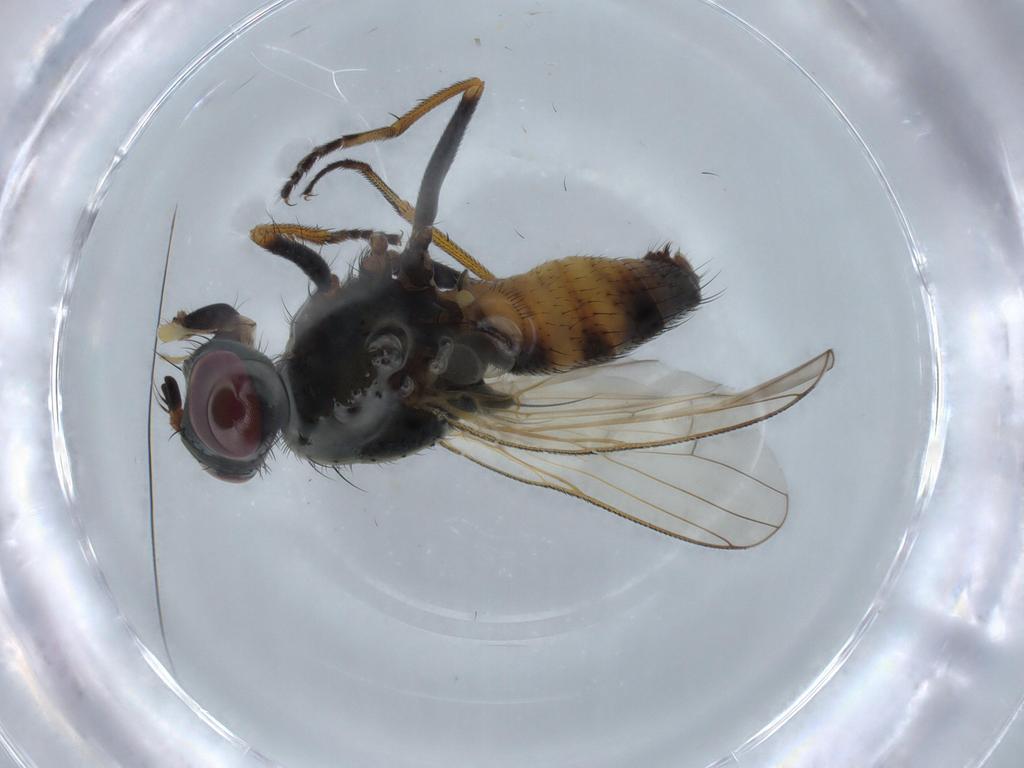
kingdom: Animalia
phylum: Arthropoda
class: Insecta
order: Diptera
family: Muscidae
